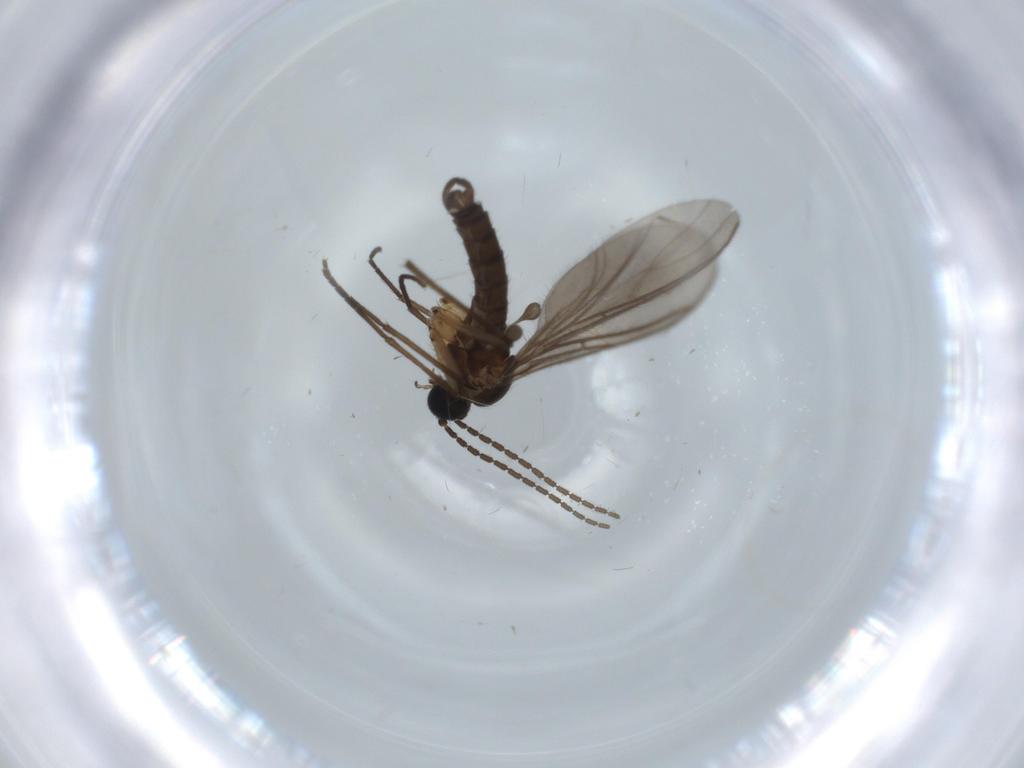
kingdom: Animalia
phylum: Arthropoda
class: Insecta
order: Diptera
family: Sciaridae
